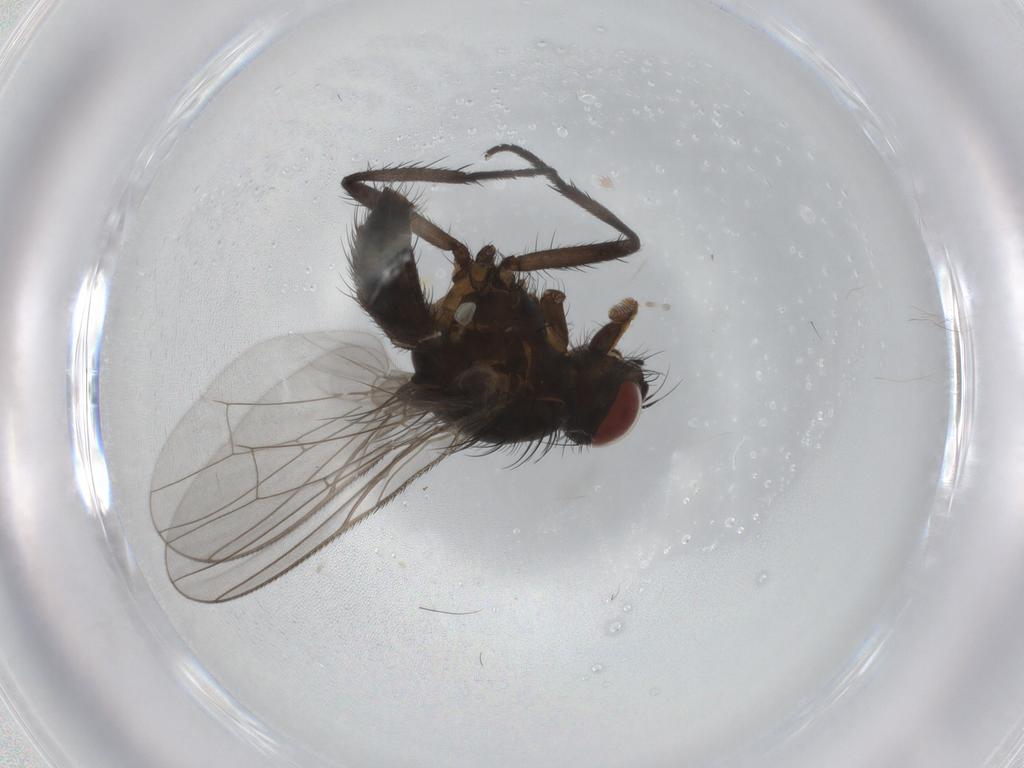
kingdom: Animalia
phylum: Arthropoda
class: Insecta
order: Diptera
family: Anthomyiidae
